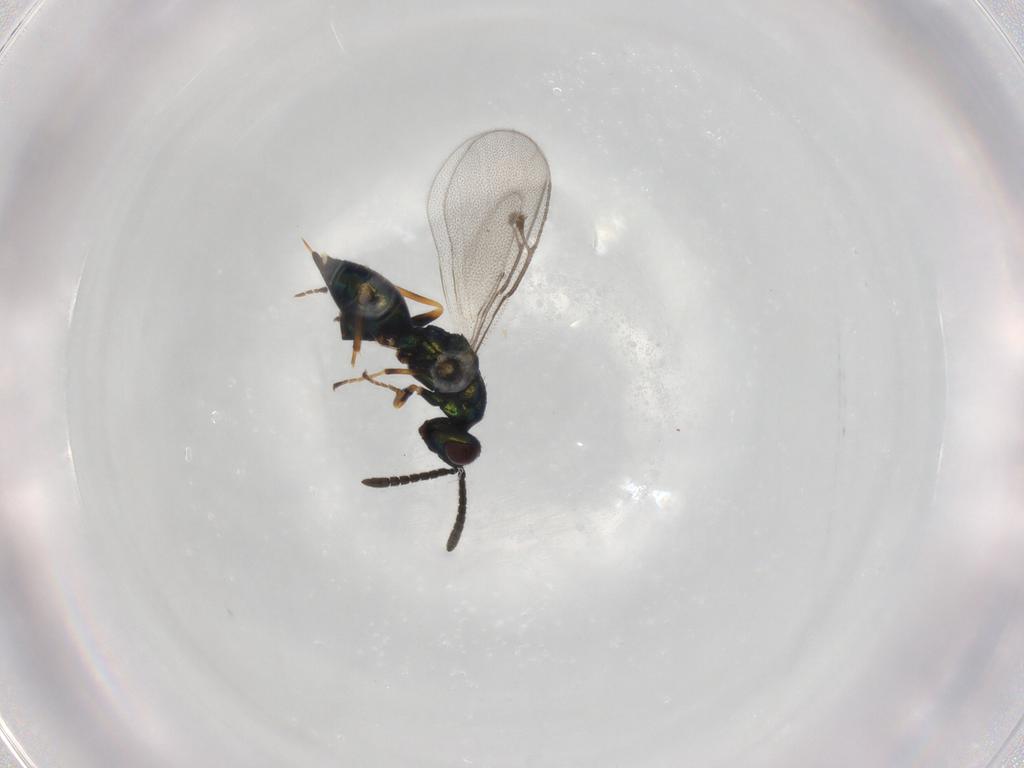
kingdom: Animalia
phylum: Arthropoda
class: Insecta
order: Hymenoptera
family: Pteromalidae
